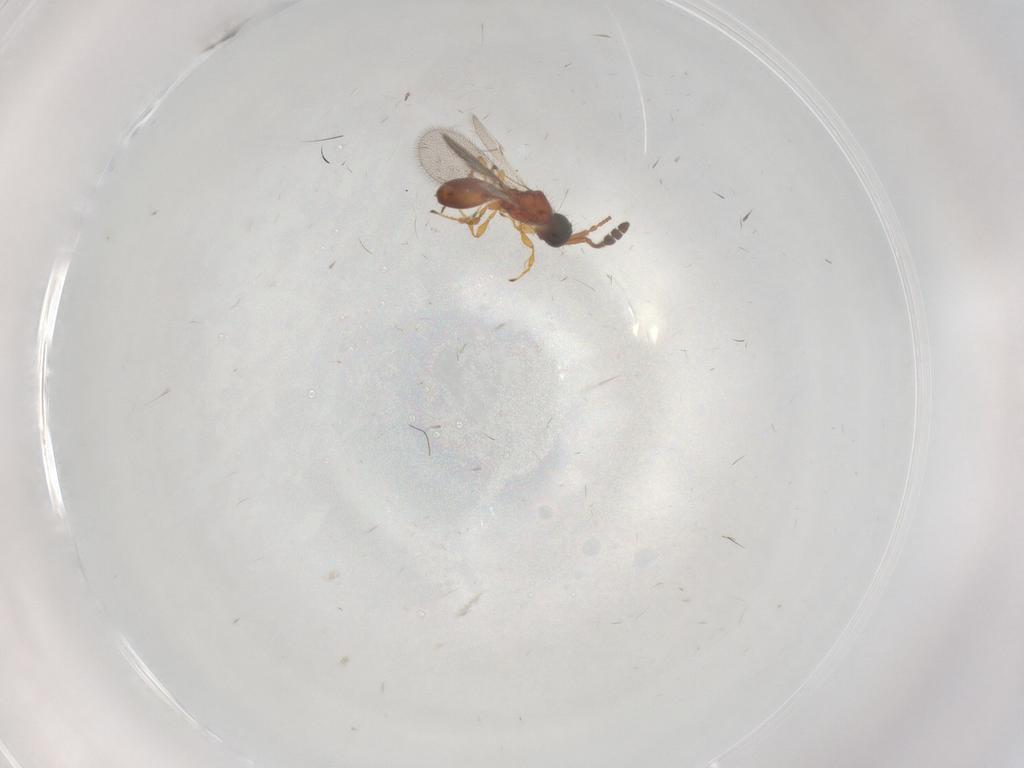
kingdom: Animalia
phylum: Arthropoda
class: Insecta
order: Hymenoptera
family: Diapriidae
